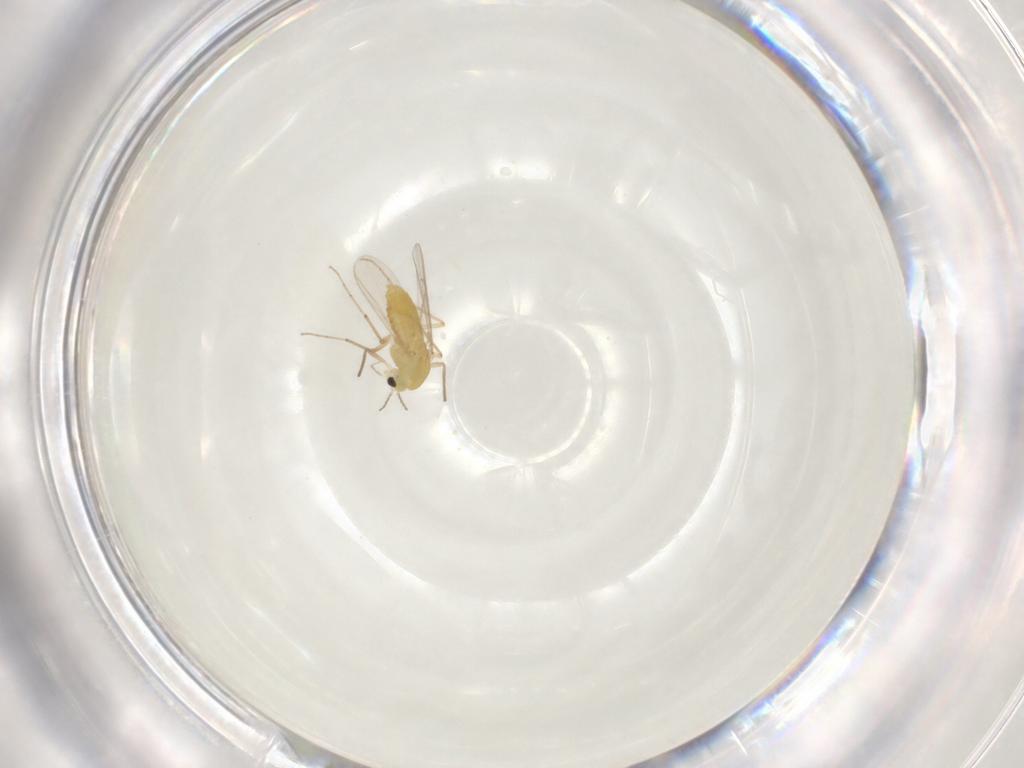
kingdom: Animalia
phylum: Arthropoda
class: Insecta
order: Diptera
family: Chironomidae
